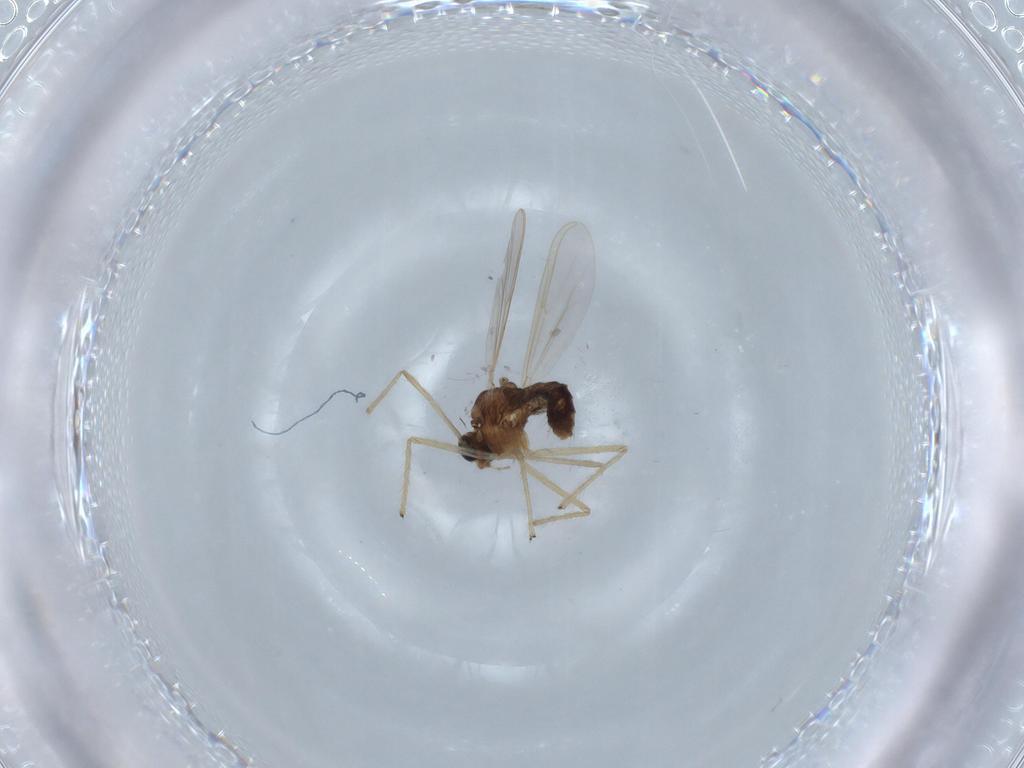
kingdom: Animalia
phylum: Arthropoda
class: Insecta
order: Diptera
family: Chironomidae
